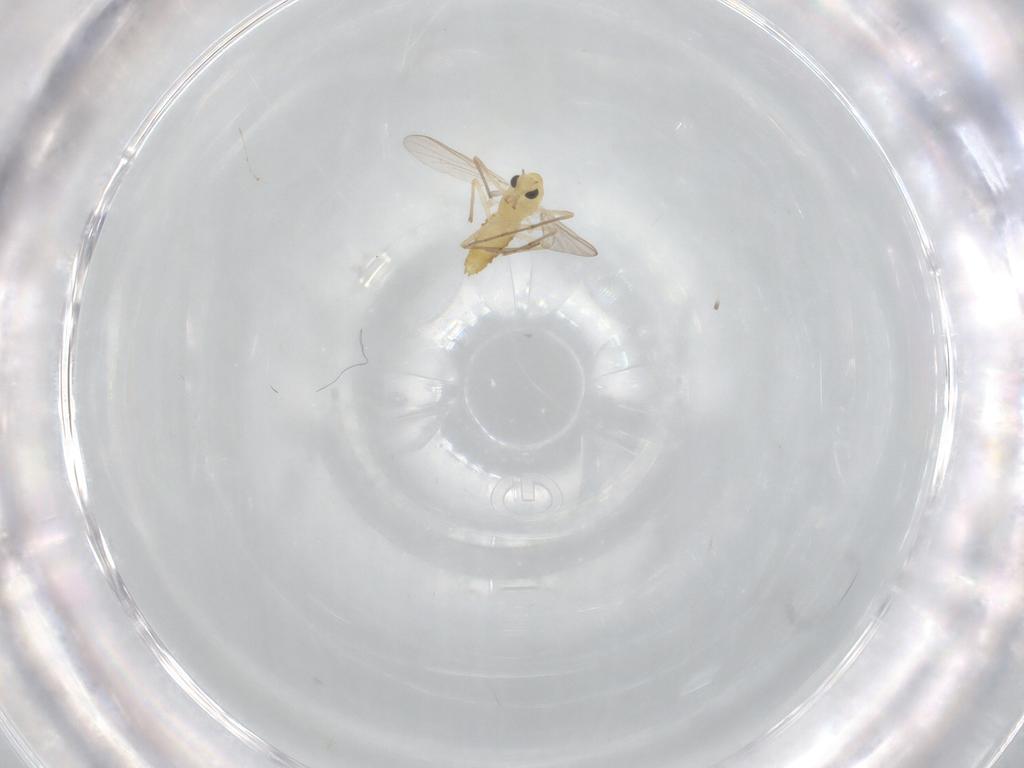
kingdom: Animalia
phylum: Arthropoda
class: Insecta
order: Diptera
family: Chironomidae
